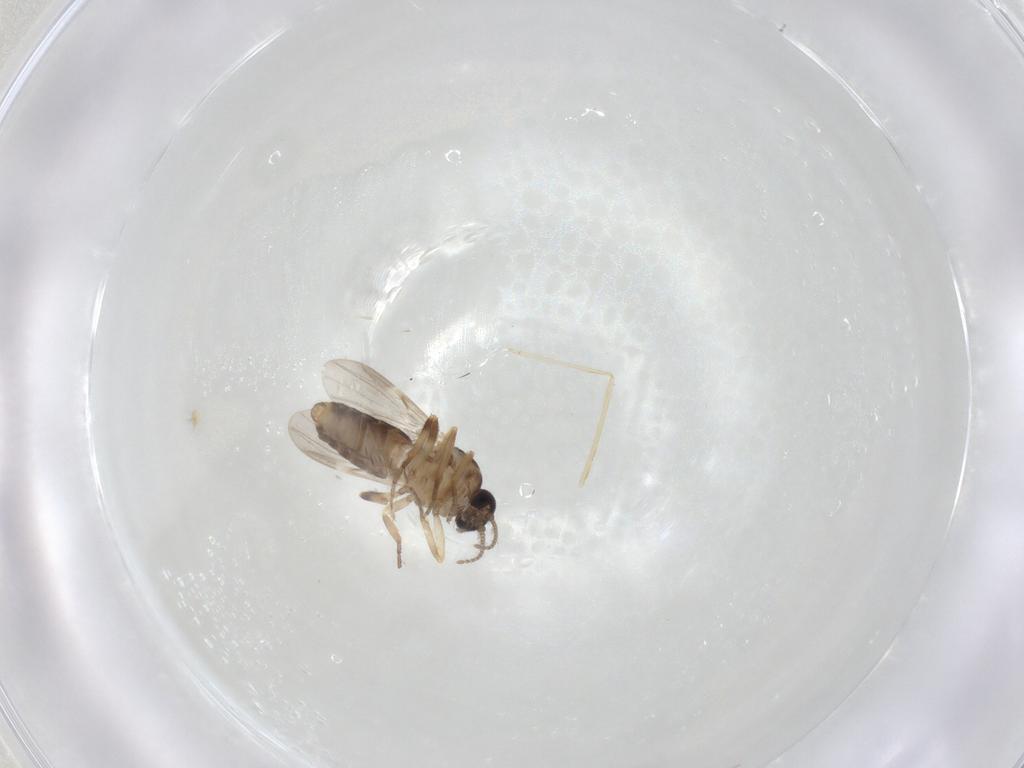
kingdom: Animalia
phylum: Arthropoda
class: Insecta
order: Diptera
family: Ceratopogonidae
